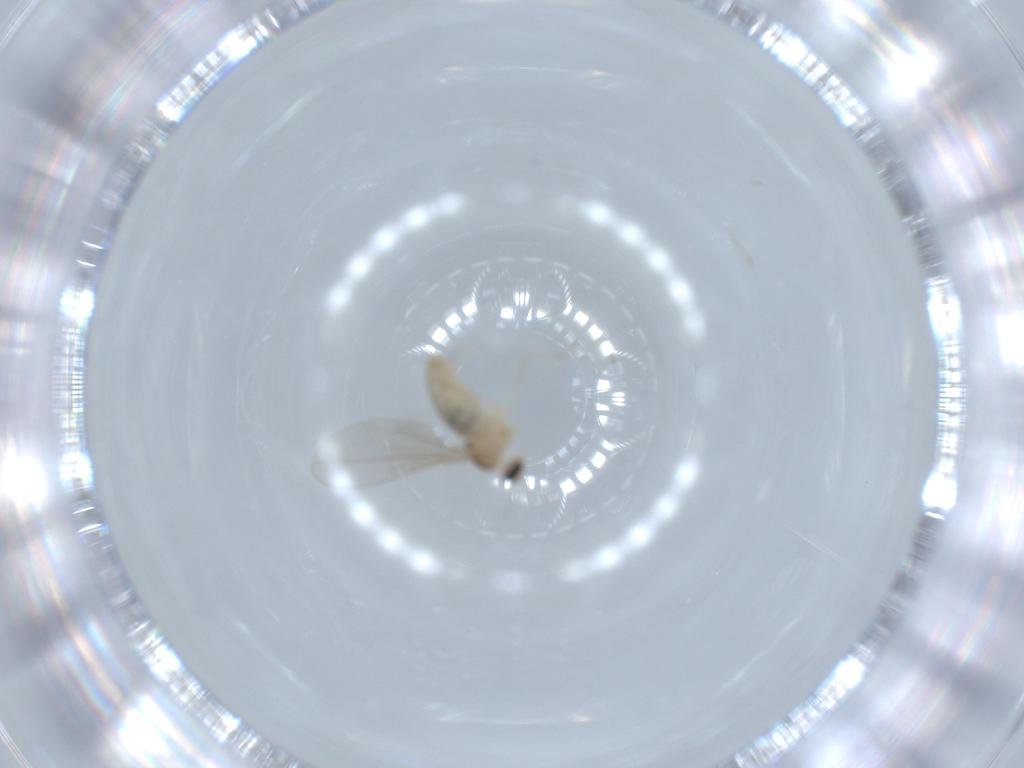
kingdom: Animalia
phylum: Arthropoda
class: Insecta
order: Diptera
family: Cecidomyiidae
